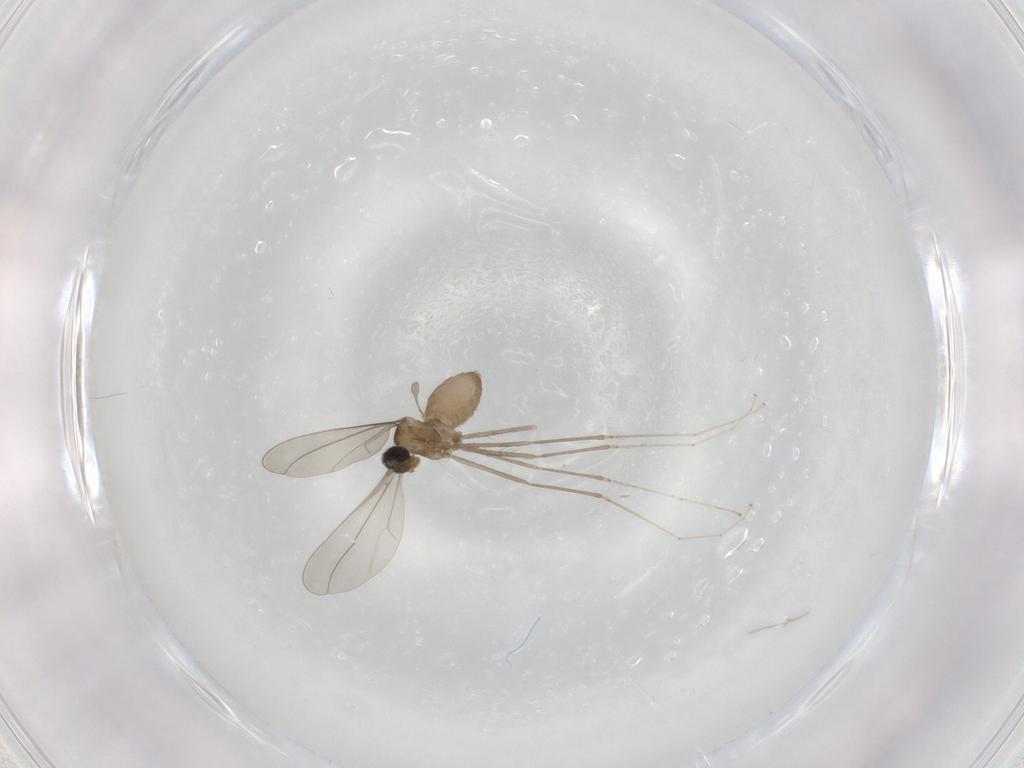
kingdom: Animalia
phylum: Arthropoda
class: Insecta
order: Diptera
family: Cecidomyiidae
